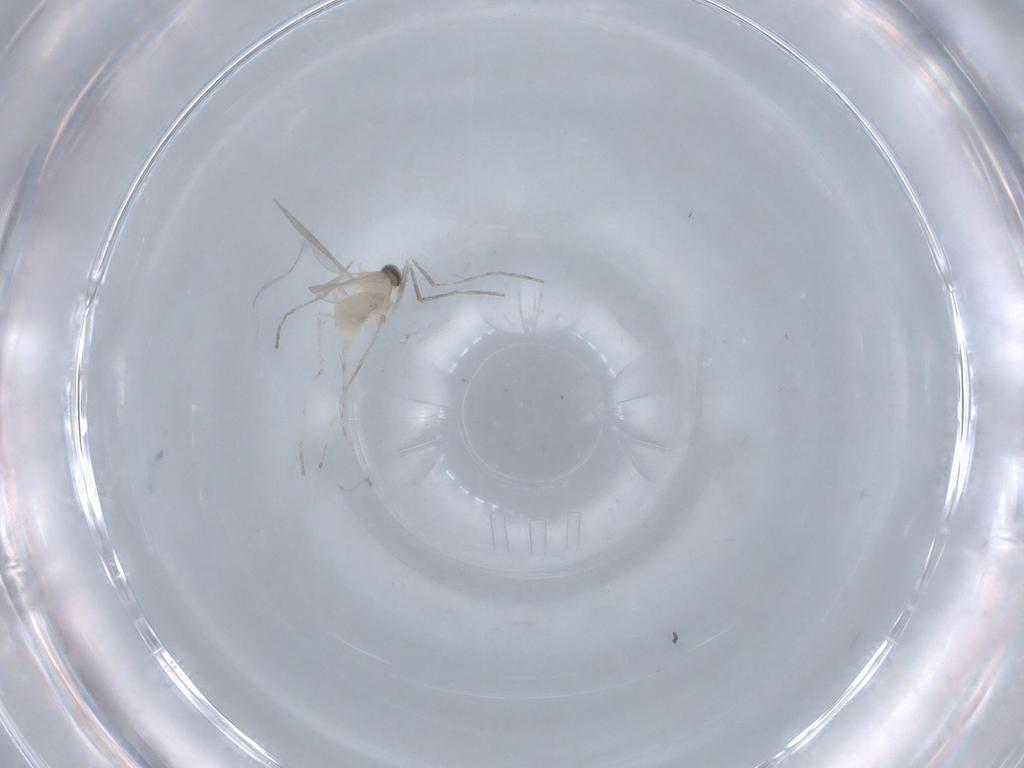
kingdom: Animalia
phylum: Arthropoda
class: Insecta
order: Diptera
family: Cecidomyiidae
